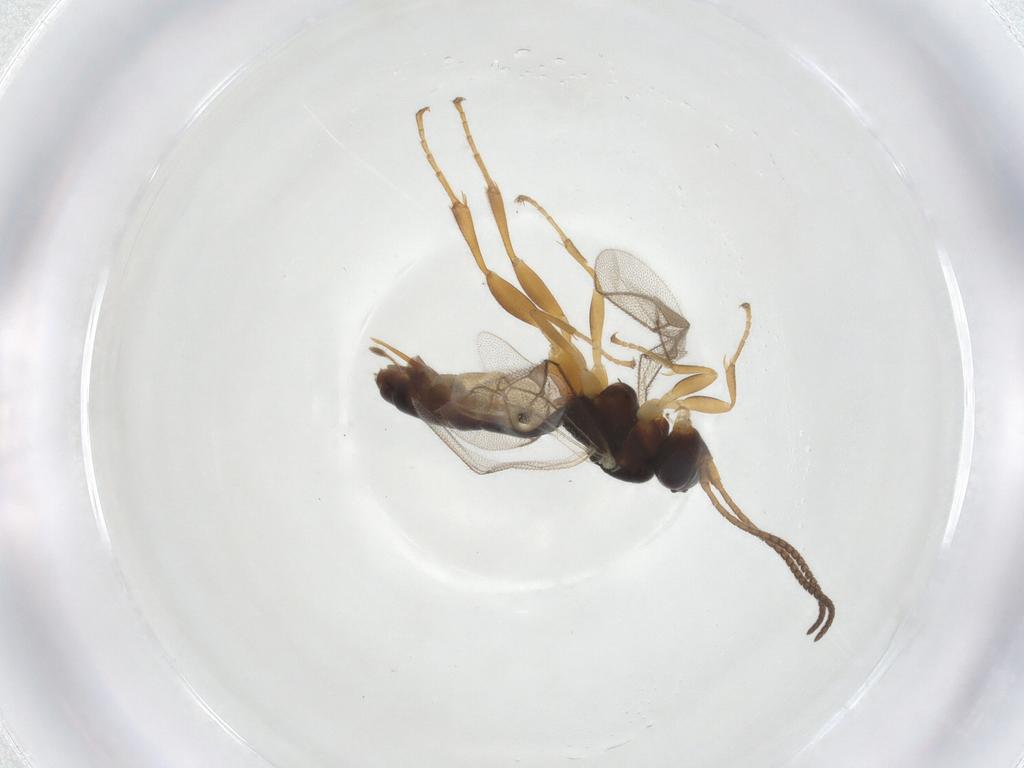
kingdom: Animalia
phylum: Arthropoda
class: Insecta
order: Hymenoptera
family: Ichneumonidae
